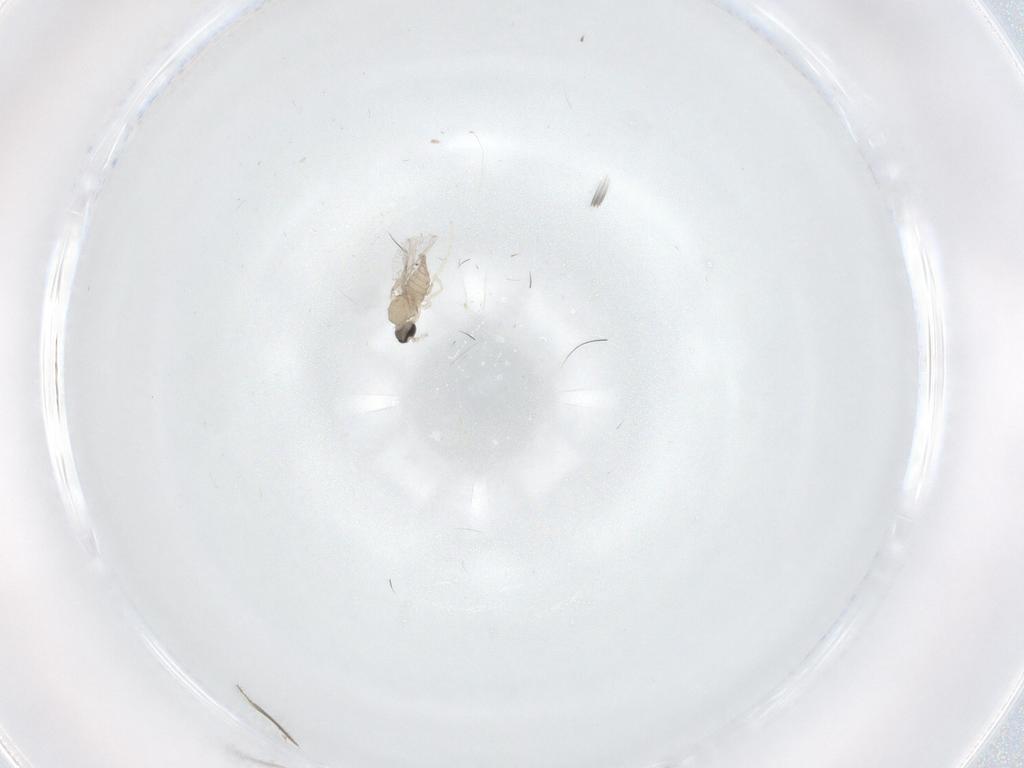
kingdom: Animalia
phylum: Arthropoda
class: Insecta
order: Diptera
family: Cecidomyiidae
